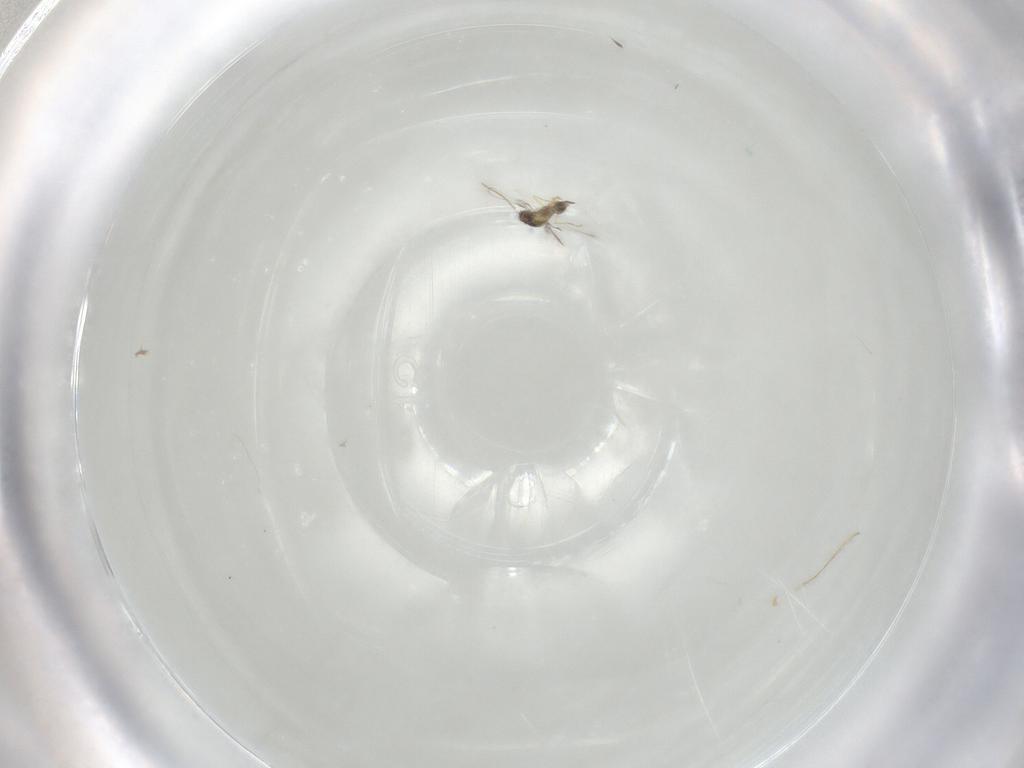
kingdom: Animalia
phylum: Arthropoda
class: Insecta
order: Hymenoptera
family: Mymaridae
